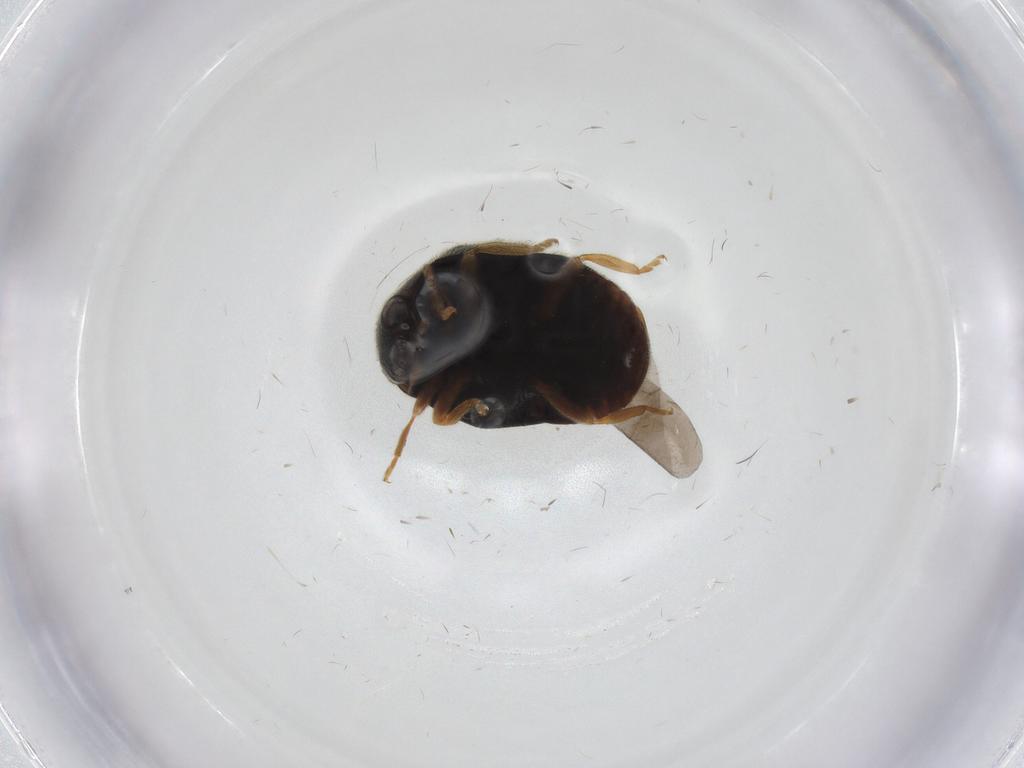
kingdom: Animalia
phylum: Arthropoda
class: Insecta
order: Coleoptera
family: Coccinellidae
